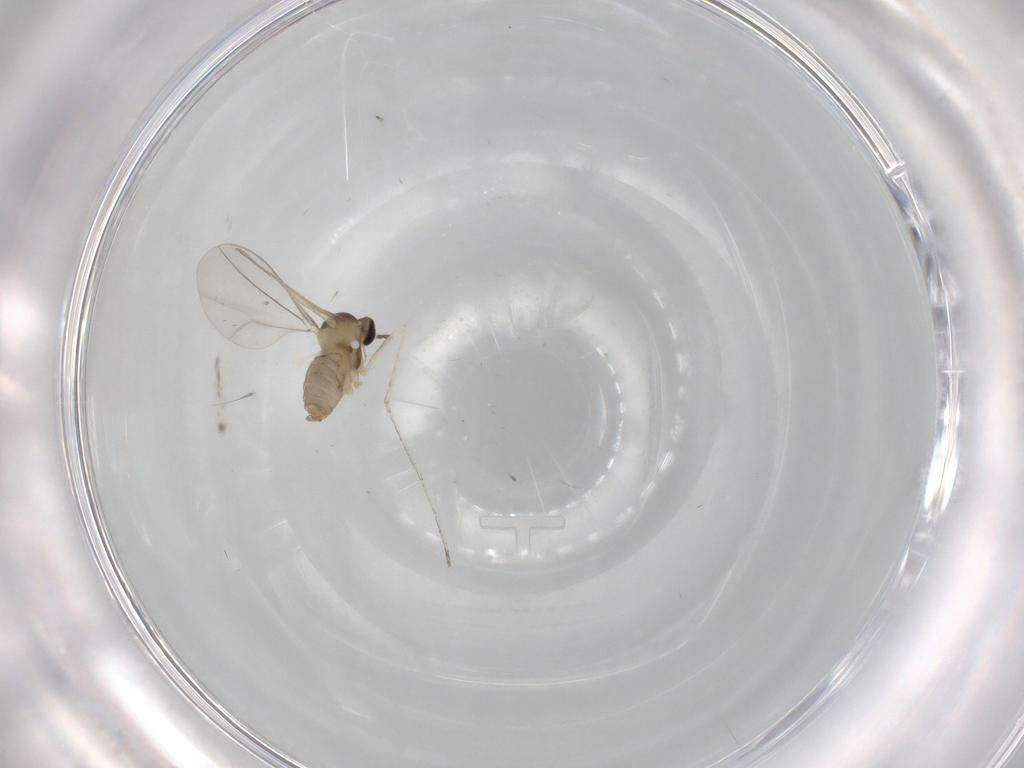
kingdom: Animalia
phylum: Arthropoda
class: Insecta
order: Diptera
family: Cecidomyiidae
